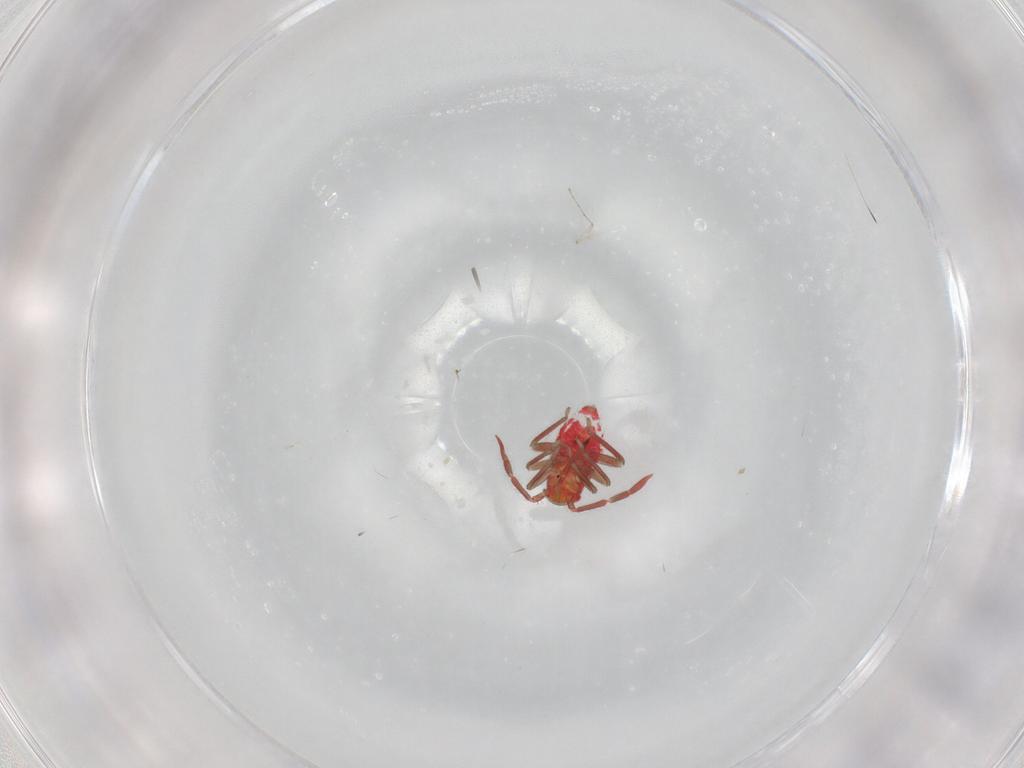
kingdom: Animalia
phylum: Arthropoda
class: Insecta
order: Hemiptera
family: Miridae
